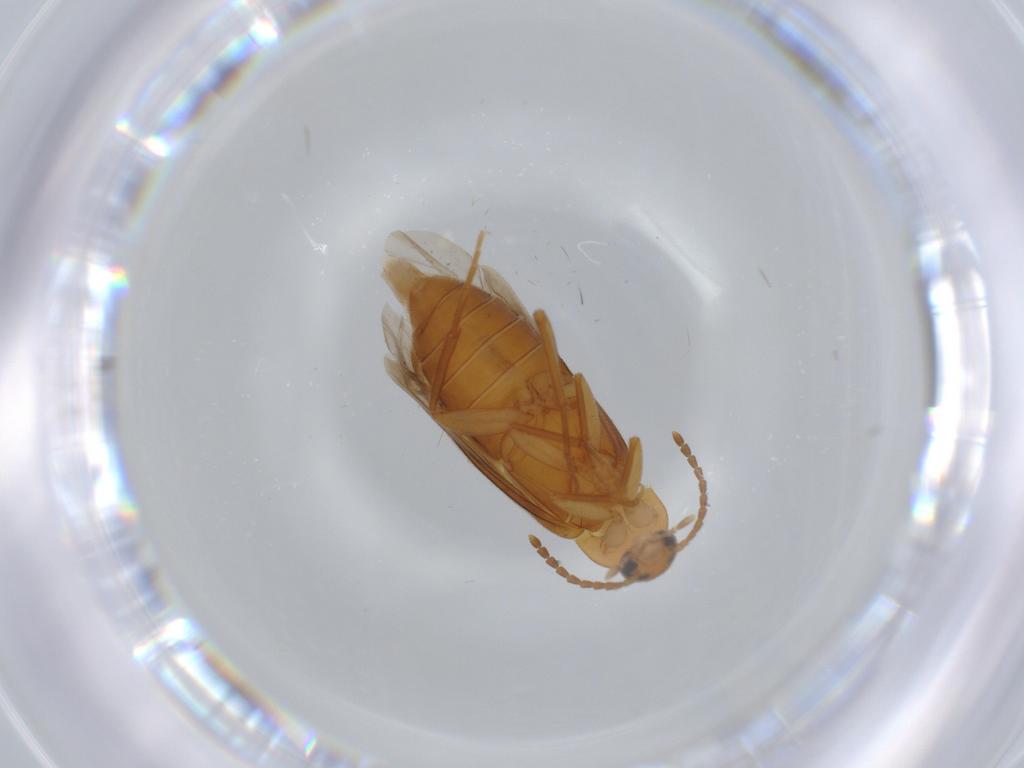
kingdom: Animalia
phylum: Arthropoda
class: Insecta
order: Coleoptera
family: Scraptiidae
